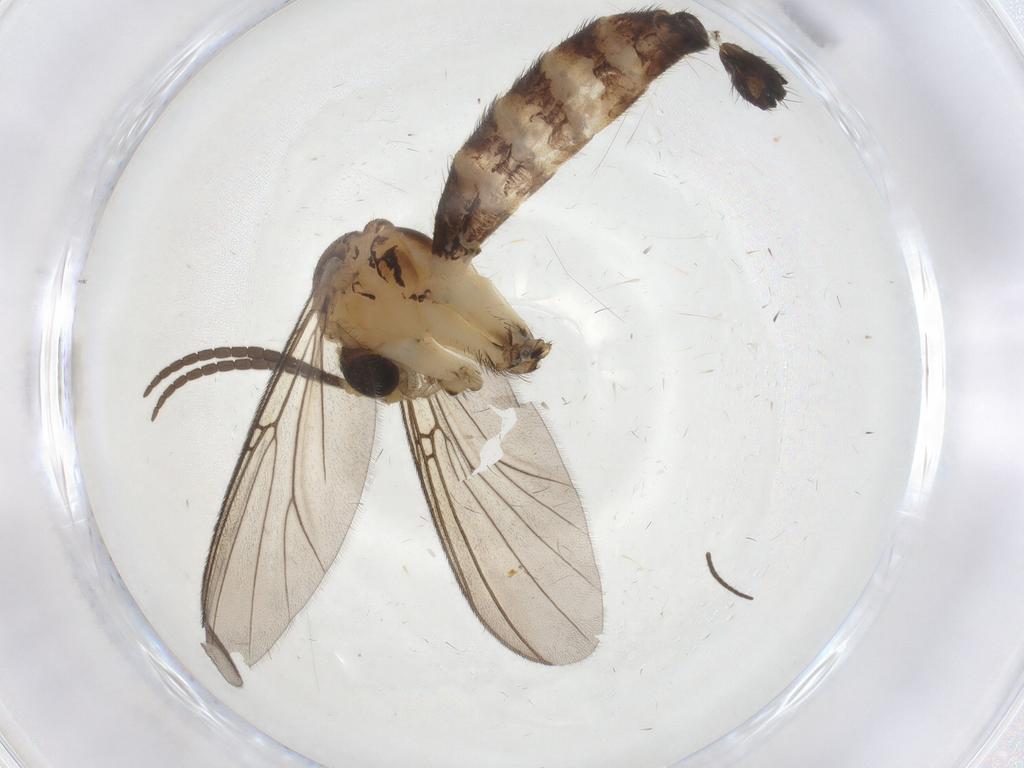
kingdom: Animalia
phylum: Arthropoda
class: Insecta
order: Diptera
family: Mycetophilidae
